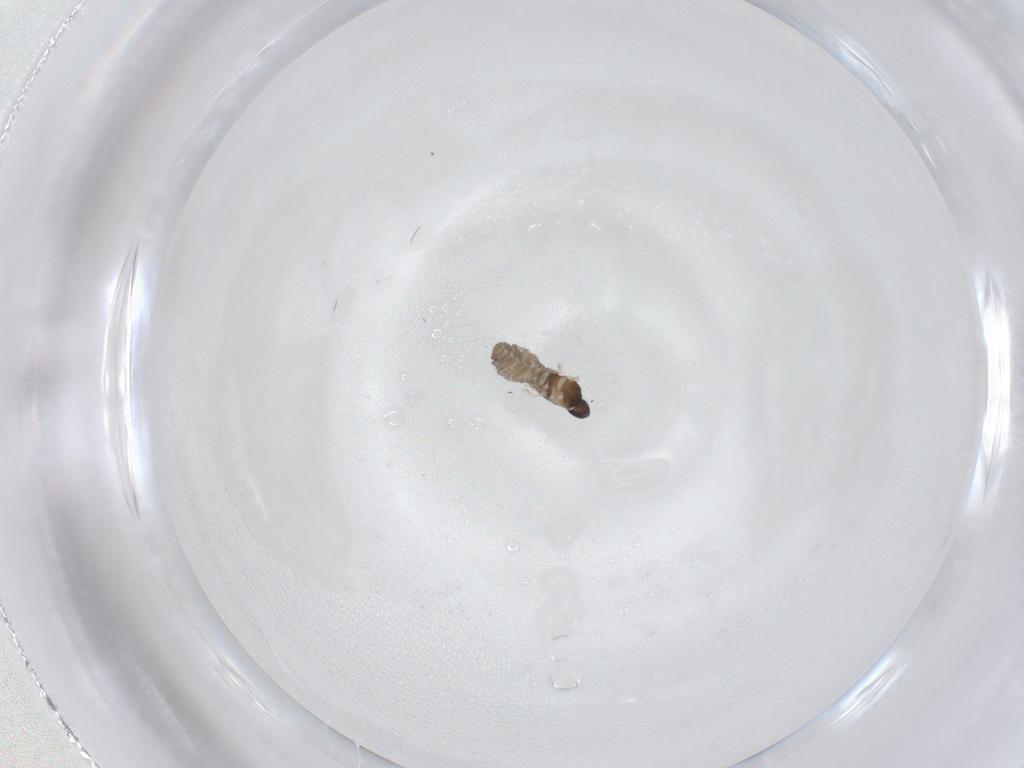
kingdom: Animalia
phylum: Arthropoda
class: Insecta
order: Diptera
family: Cecidomyiidae
